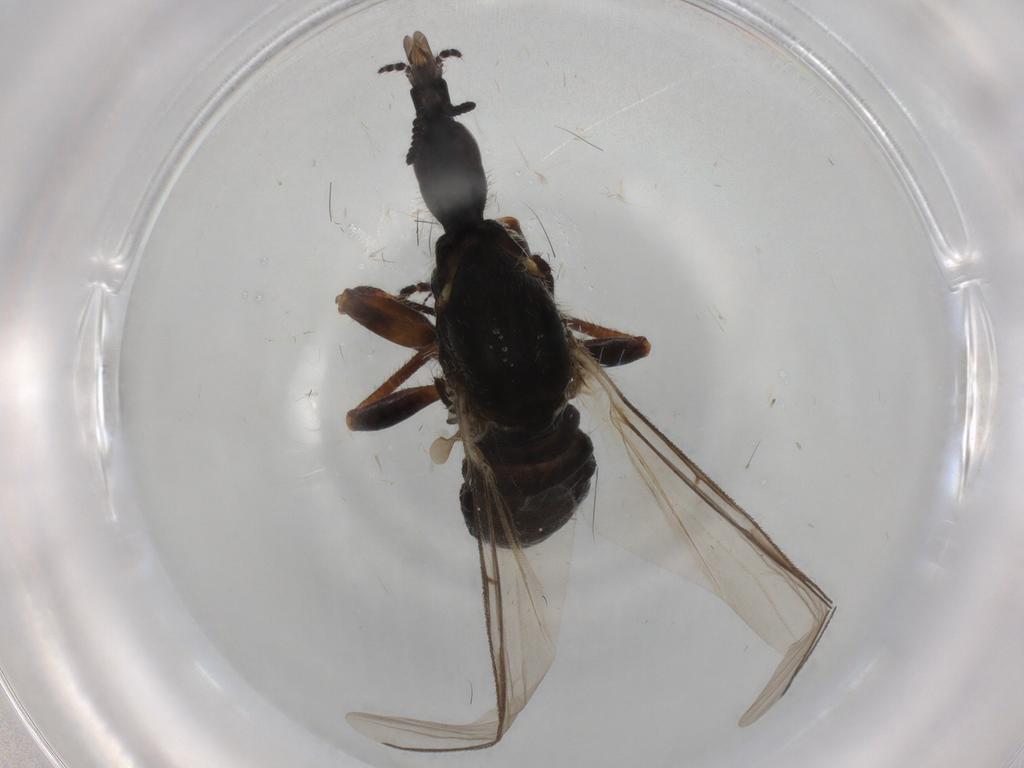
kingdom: Animalia
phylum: Arthropoda
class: Insecta
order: Diptera
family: Bibionidae
